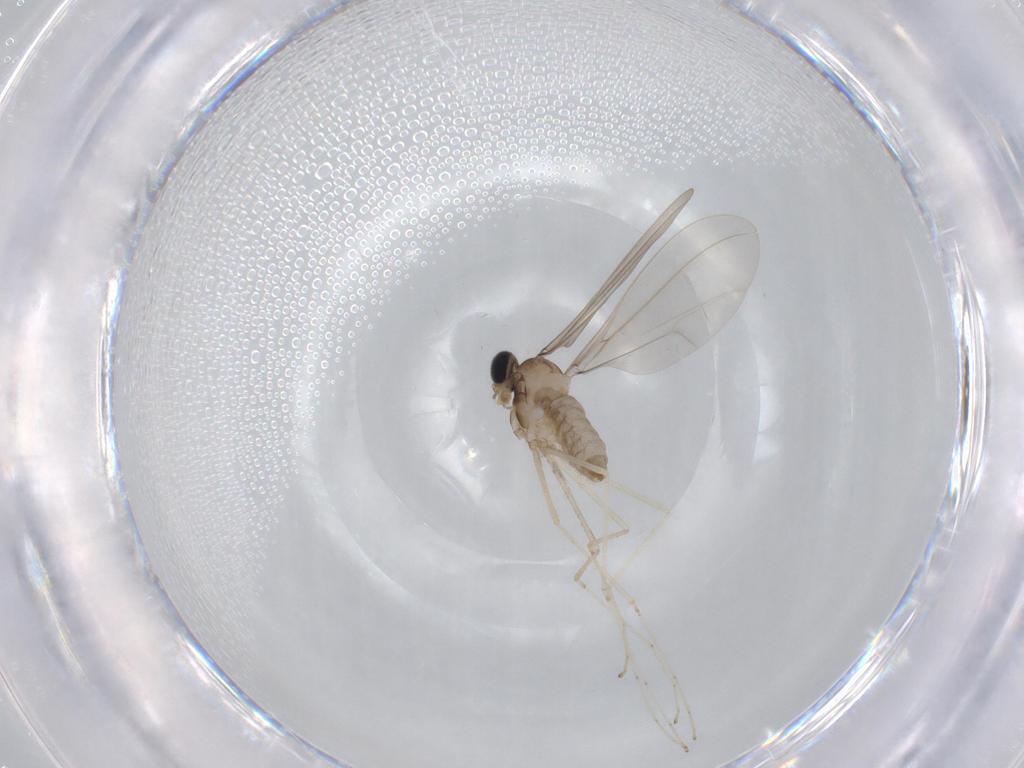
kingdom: Animalia
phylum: Arthropoda
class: Insecta
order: Diptera
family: Cecidomyiidae
